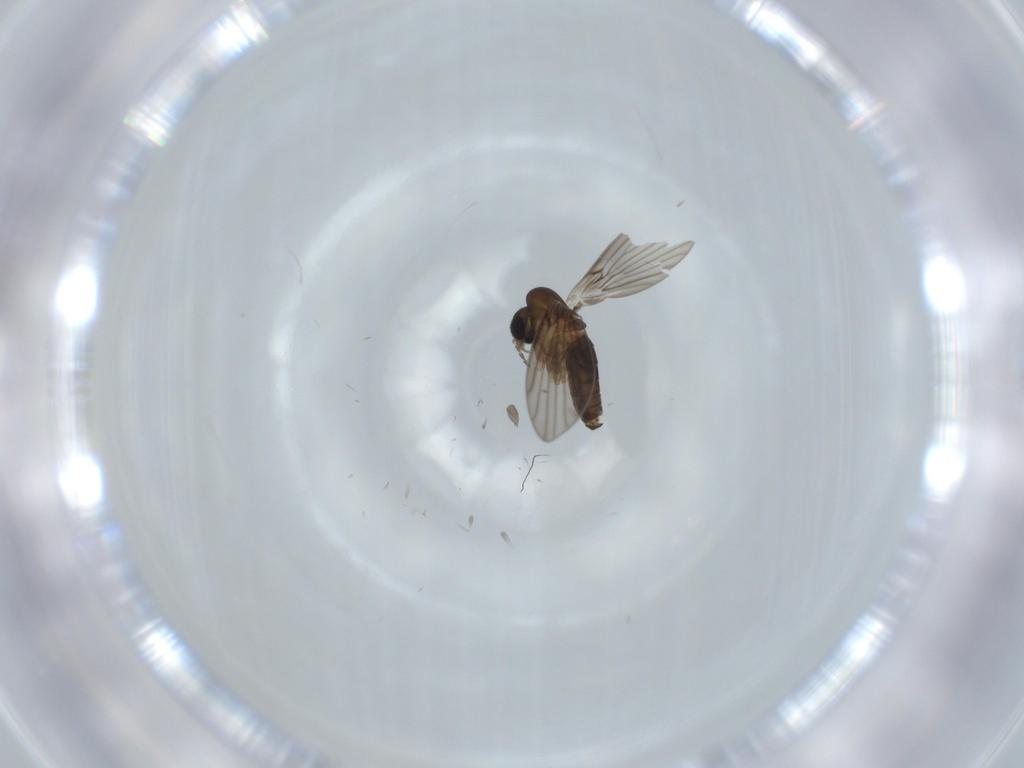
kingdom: Animalia
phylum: Arthropoda
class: Insecta
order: Diptera
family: Psychodidae
